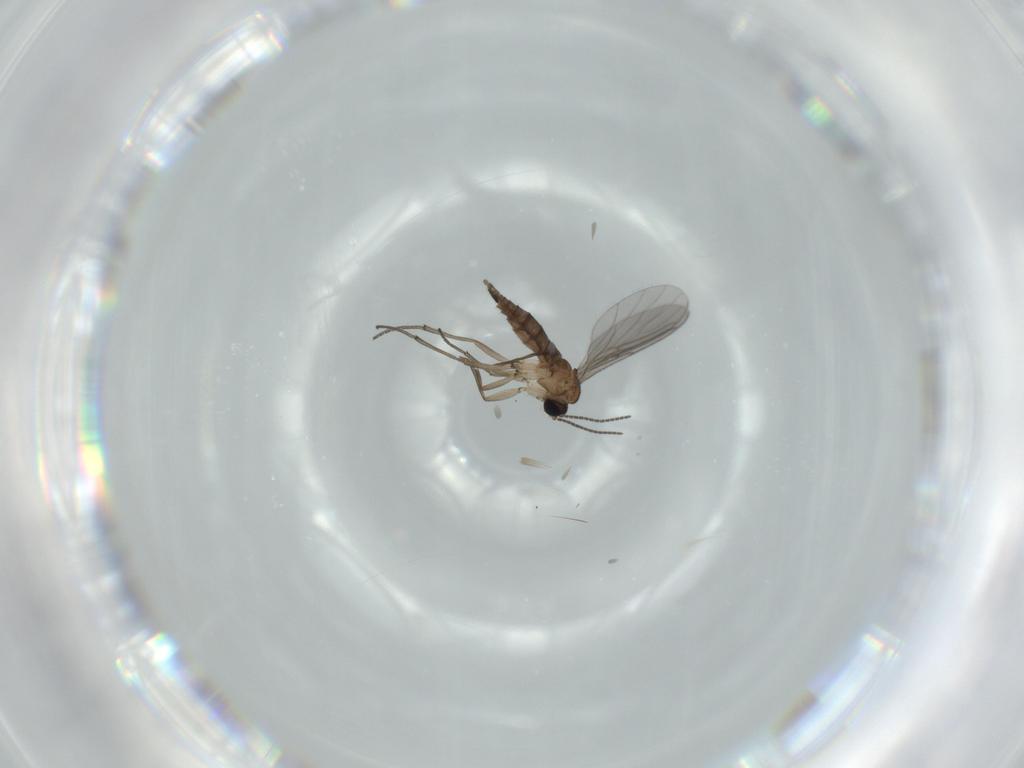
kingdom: Animalia
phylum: Arthropoda
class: Insecta
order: Diptera
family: Sciaridae
